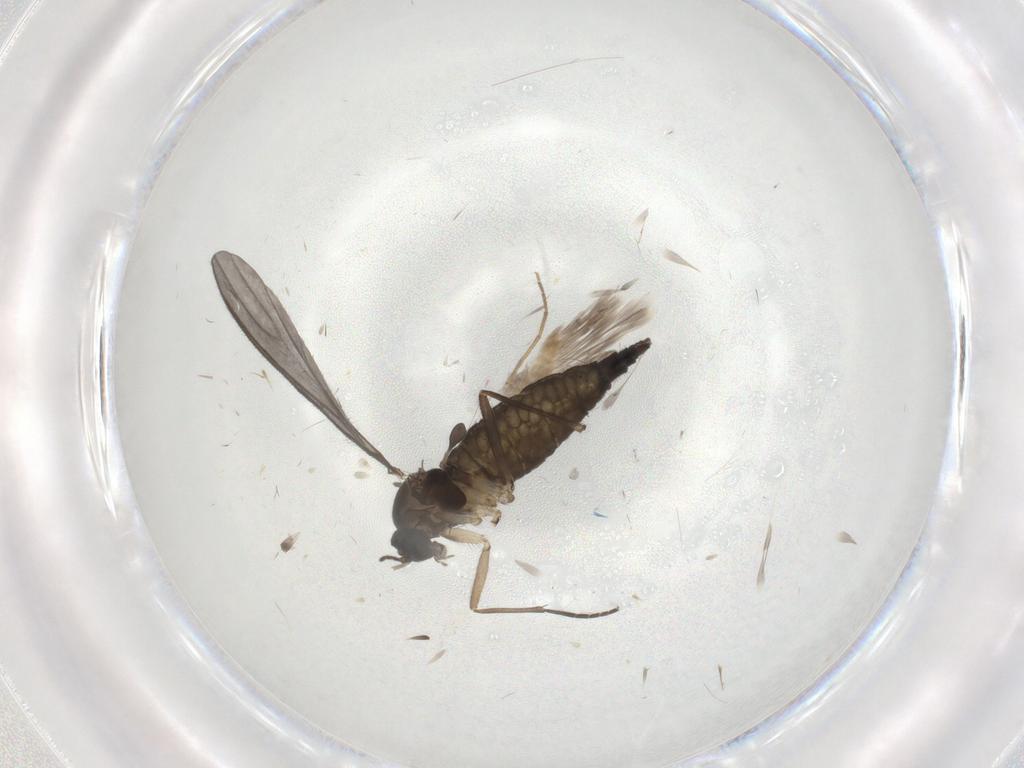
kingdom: Animalia
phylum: Arthropoda
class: Insecta
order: Diptera
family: Sciaridae
